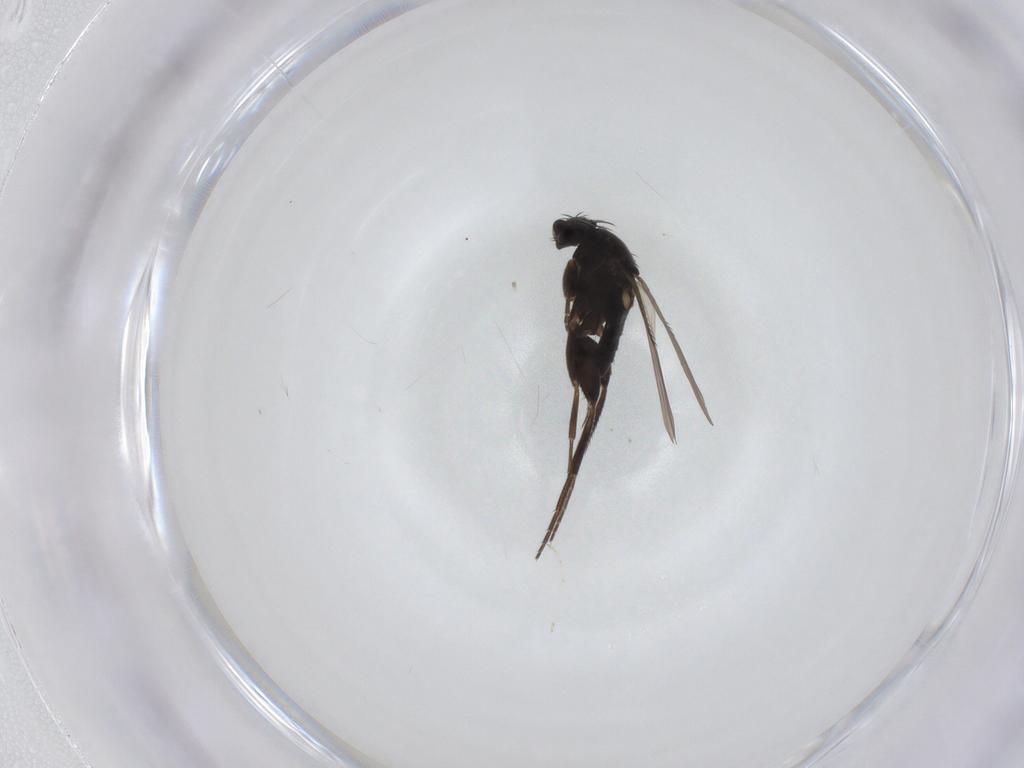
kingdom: Animalia
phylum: Arthropoda
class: Insecta
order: Diptera
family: Phoridae
